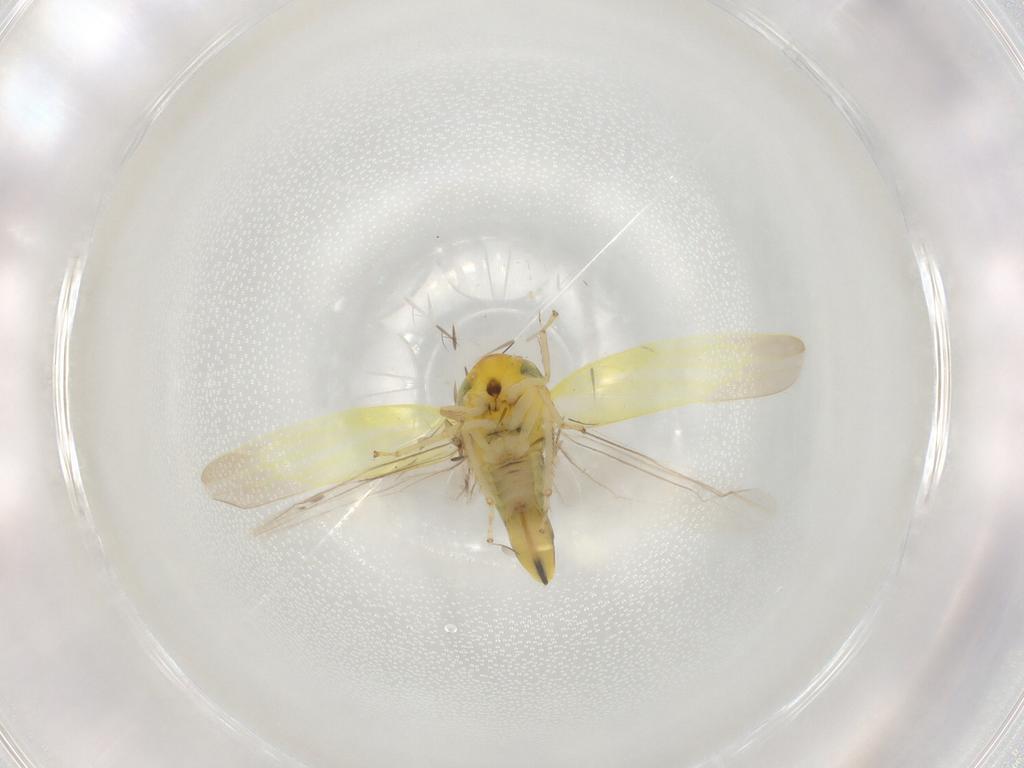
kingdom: Animalia
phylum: Arthropoda
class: Insecta
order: Hemiptera
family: Cicadellidae
